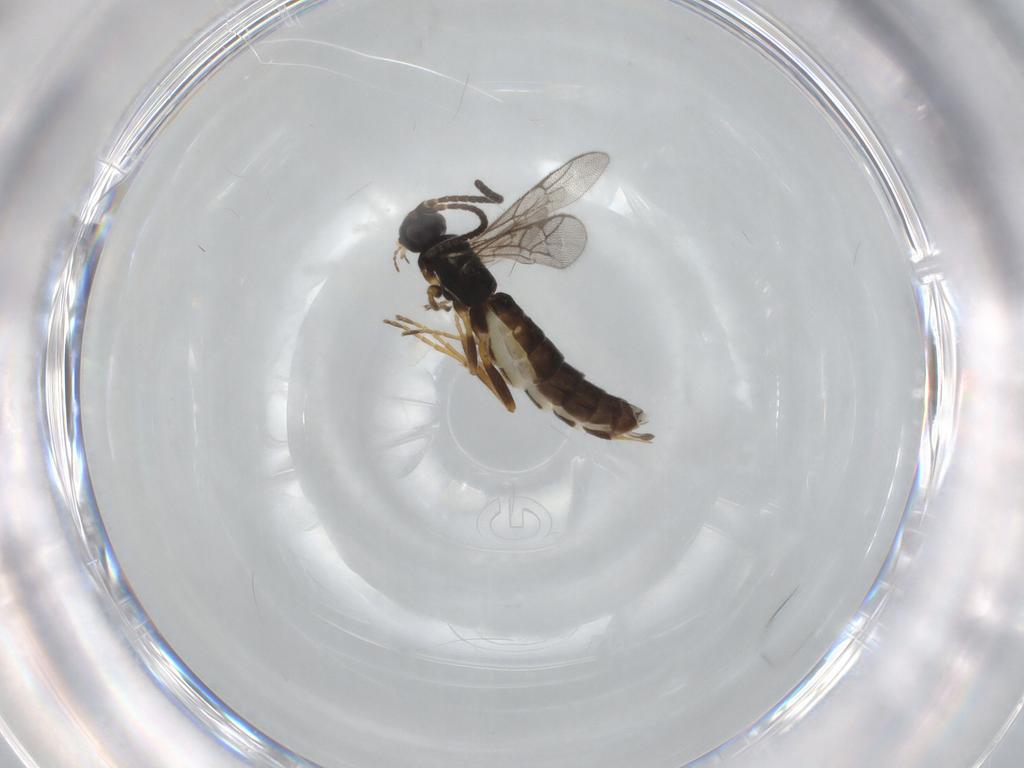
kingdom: Animalia
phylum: Arthropoda
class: Insecta
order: Hymenoptera
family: Ichneumonidae
